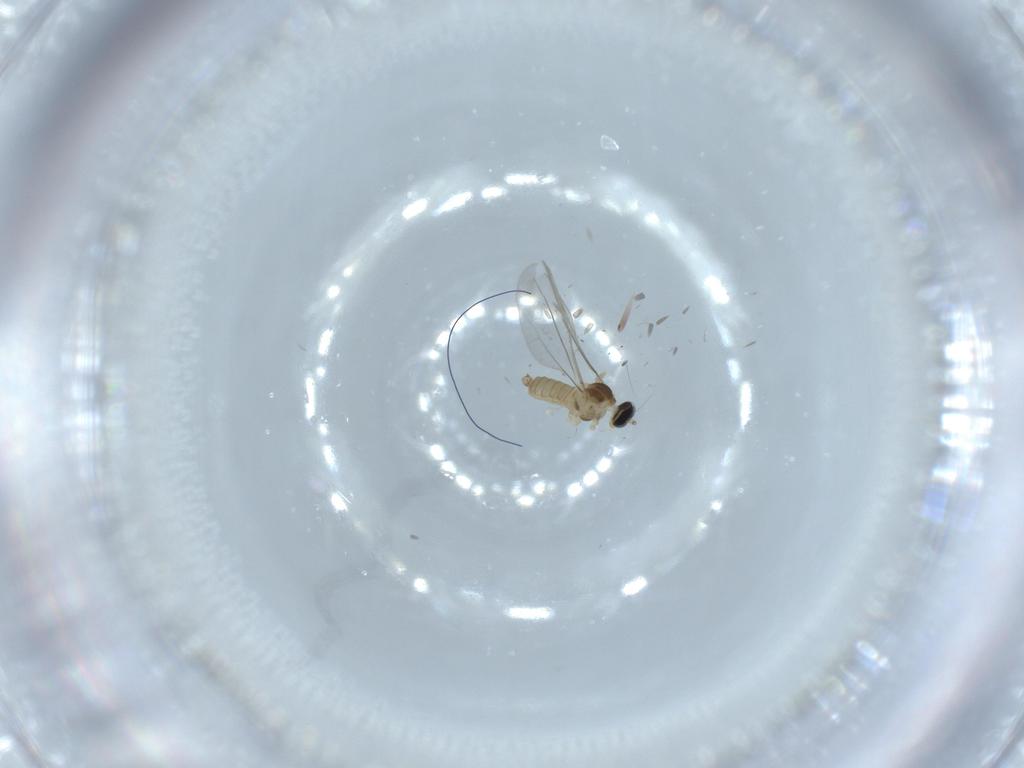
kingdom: Animalia
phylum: Arthropoda
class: Insecta
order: Diptera
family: Cecidomyiidae
